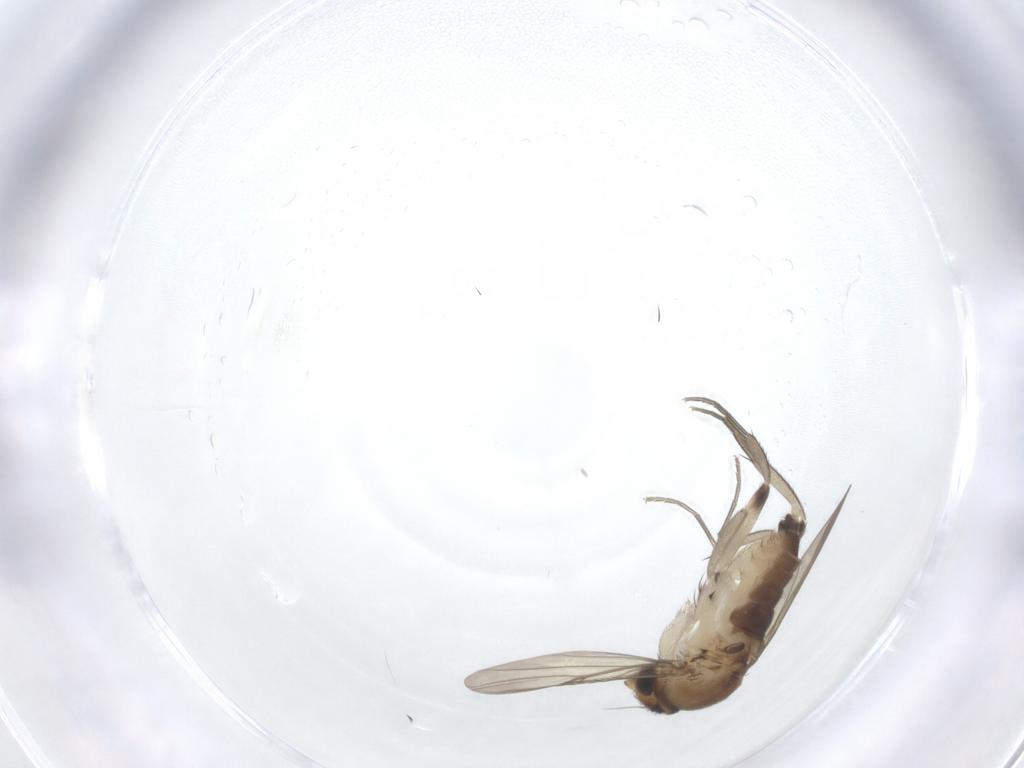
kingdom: Animalia
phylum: Arthropoda
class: Insecta
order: Diptera
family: Phoridae
